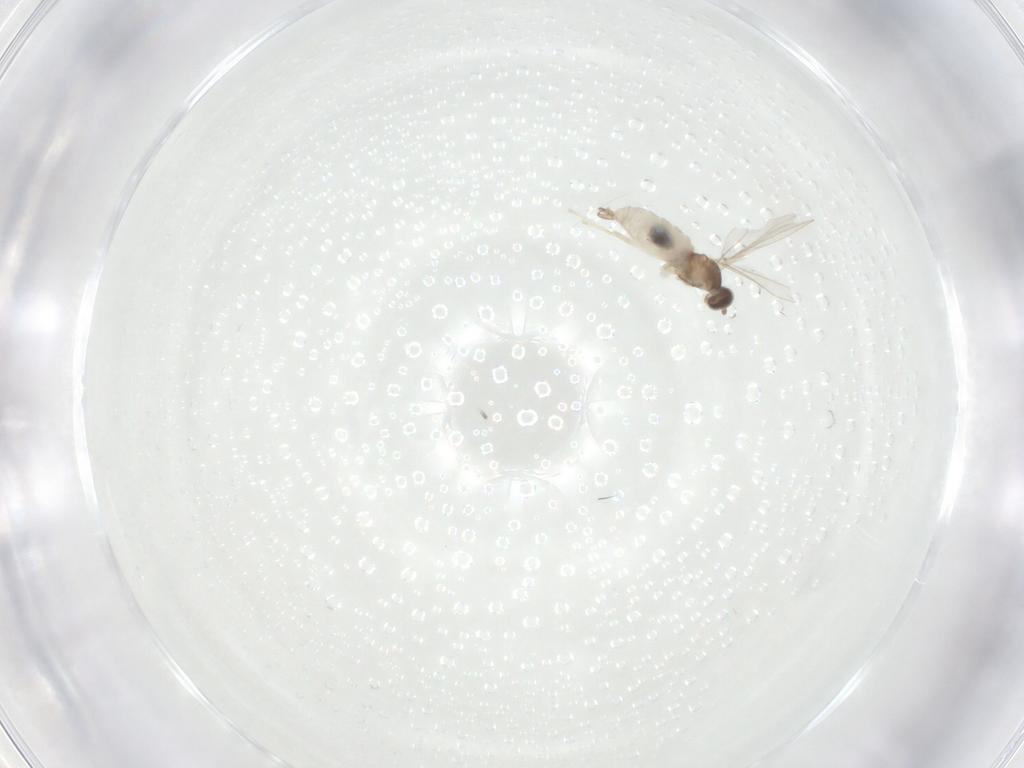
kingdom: Animalia
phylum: Arthropoda
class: Insecta
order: Diptera
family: Cecidomyiidae
